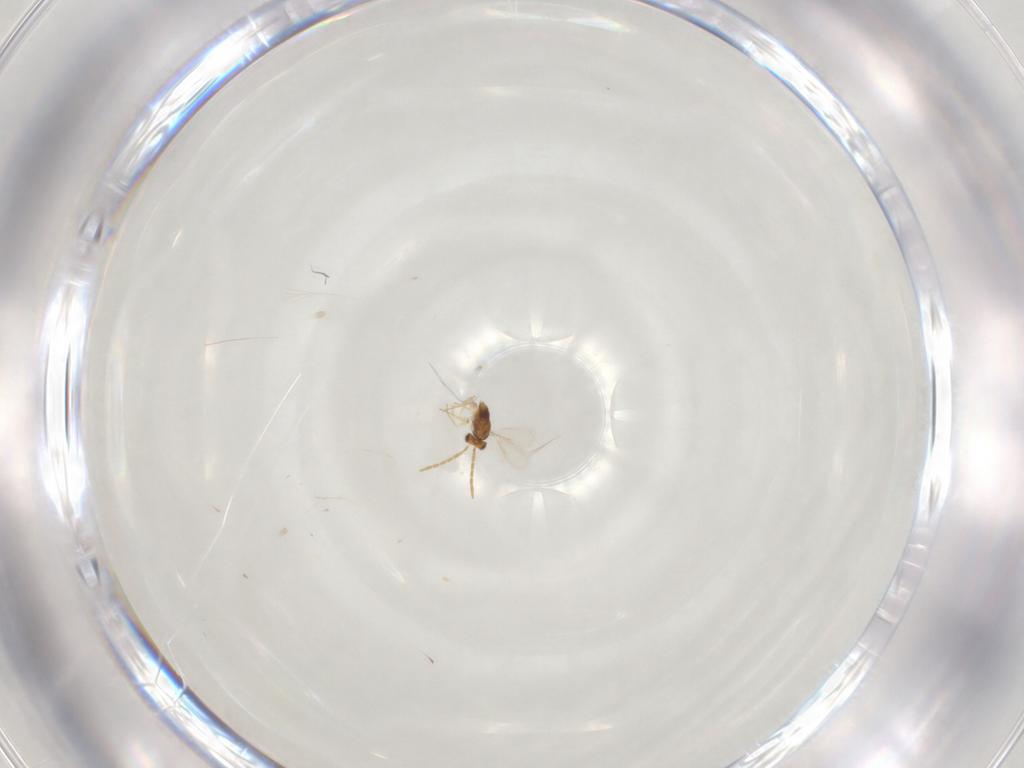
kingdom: Animalia
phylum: Arthropoda
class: Insecta
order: Hymenoptera
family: Aphelinidae
